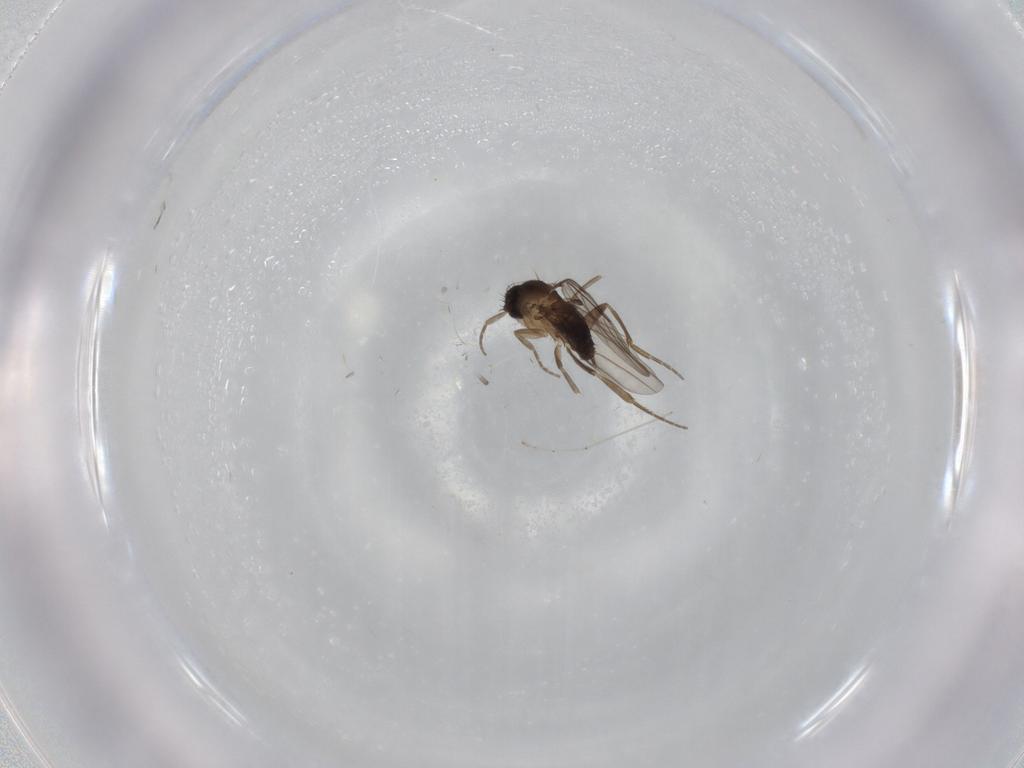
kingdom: Animalia
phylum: Arthropoda
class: Insecta
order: Diptera
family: Phoridae
